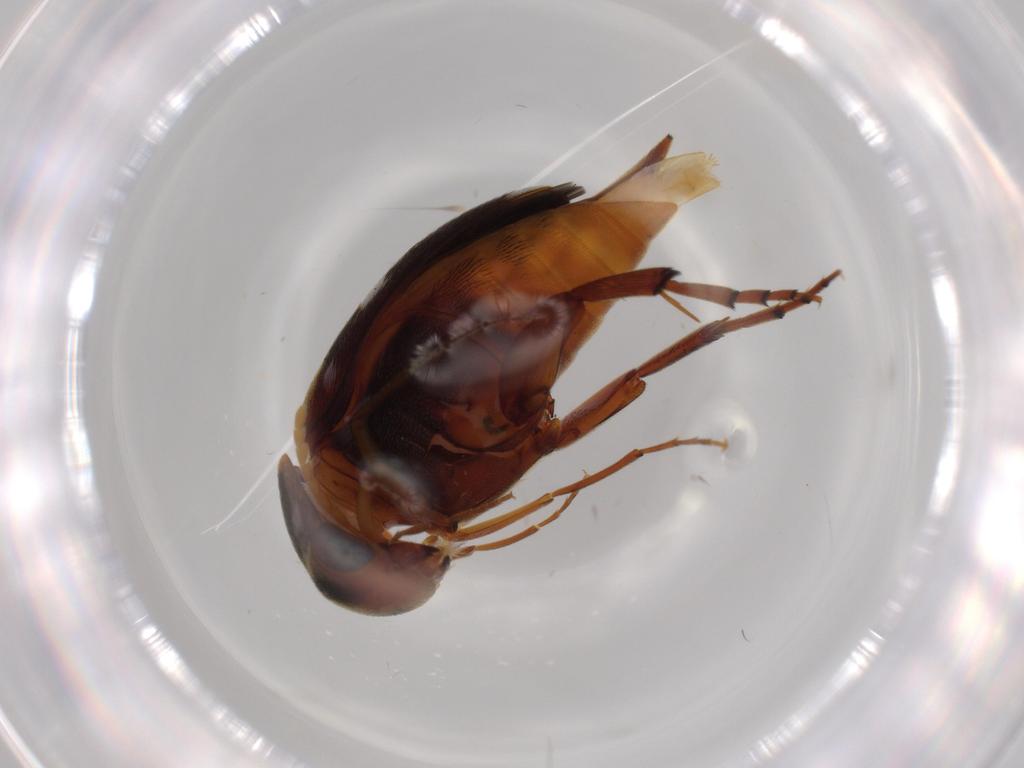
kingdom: Animalia
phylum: Arthropoda
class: Insecta
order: Coleoptera
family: Mordellidae
